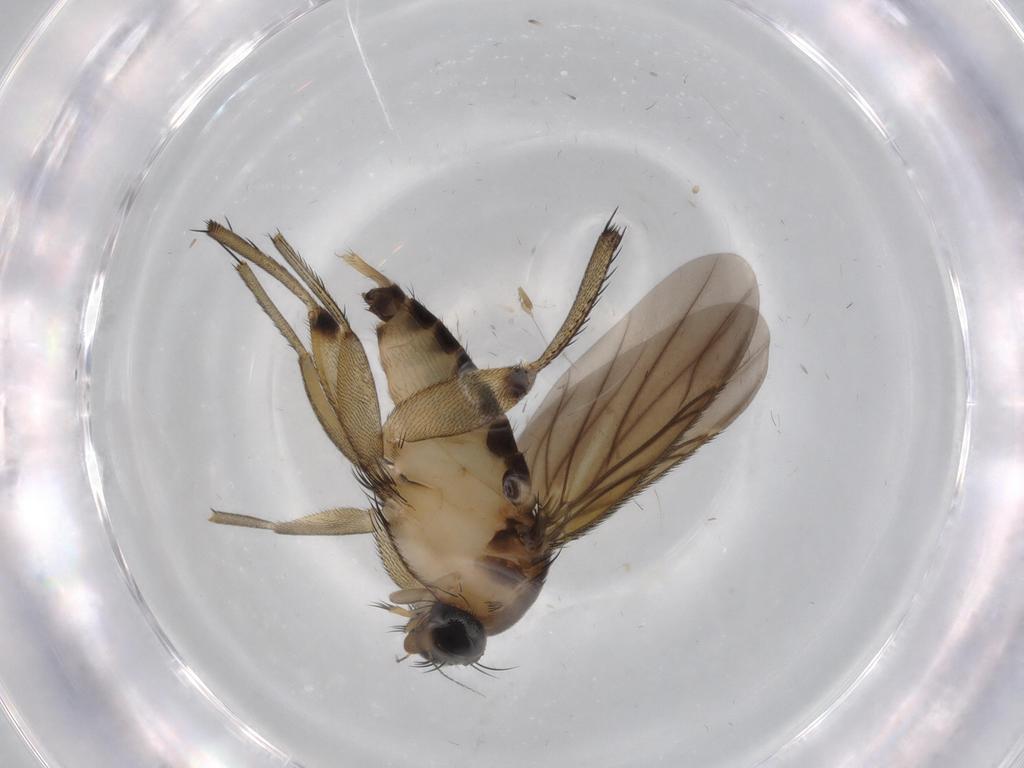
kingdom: Animalia
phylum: Arthropoda
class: Insecta
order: Diptera
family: Phoridae
